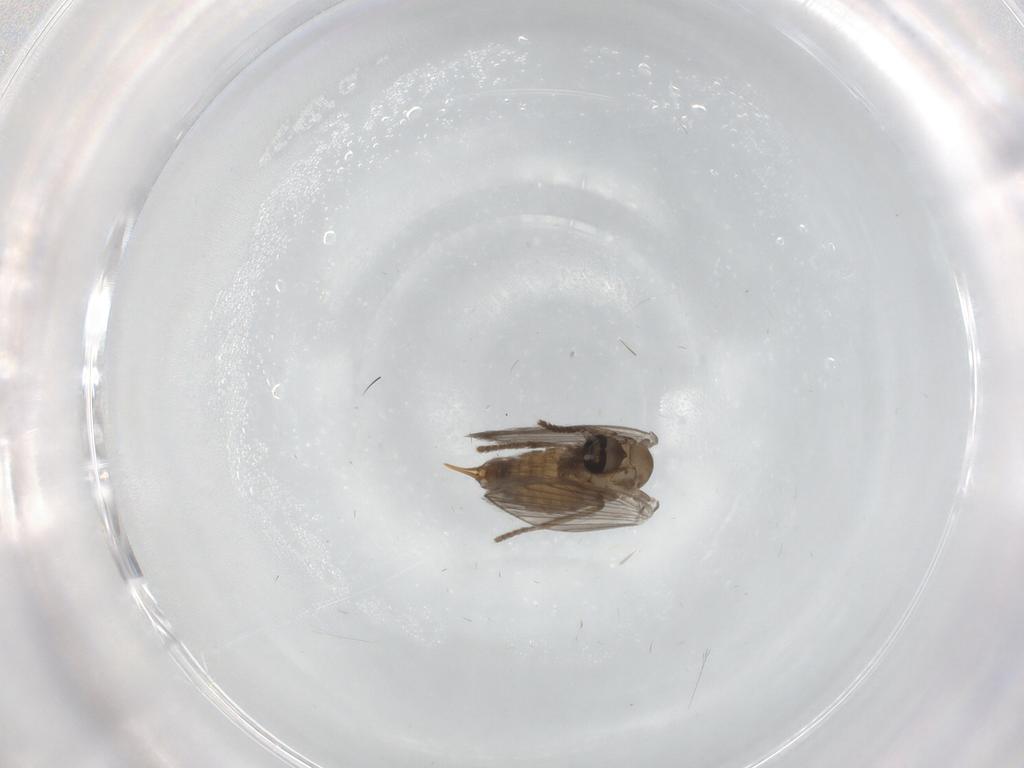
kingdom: Animalia
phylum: Arthropoda
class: Insecta
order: Diptera
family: Psychodidae
